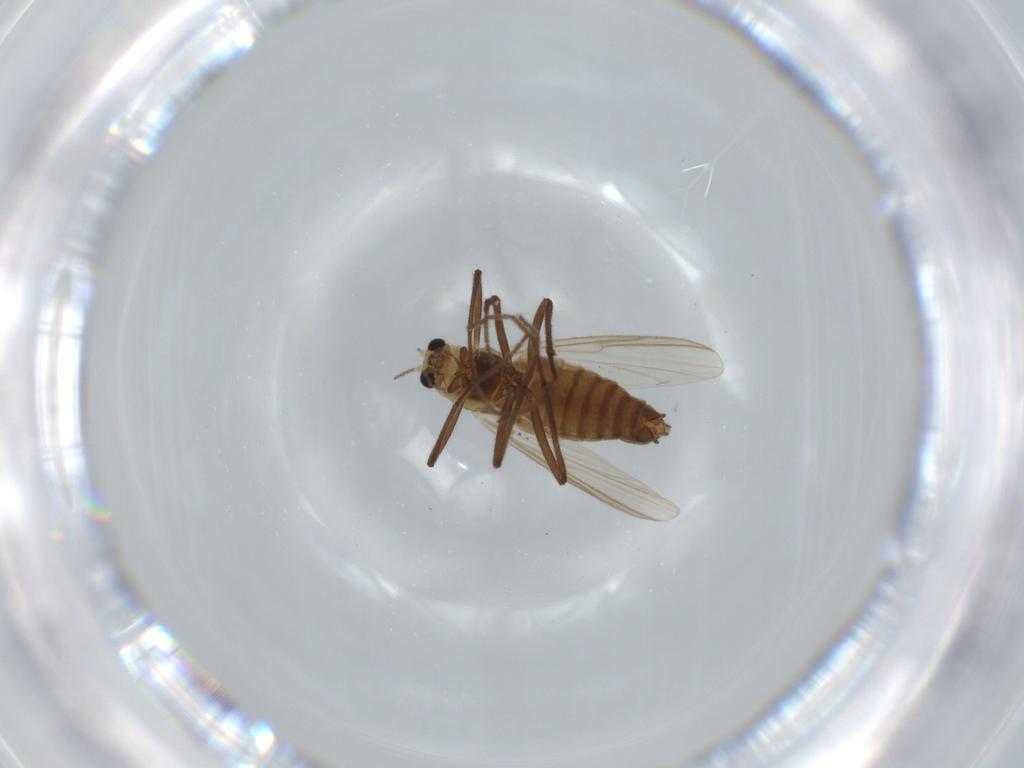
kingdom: Animalia
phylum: Arthropoda
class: Insecta
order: Diptera
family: Chironomidae
